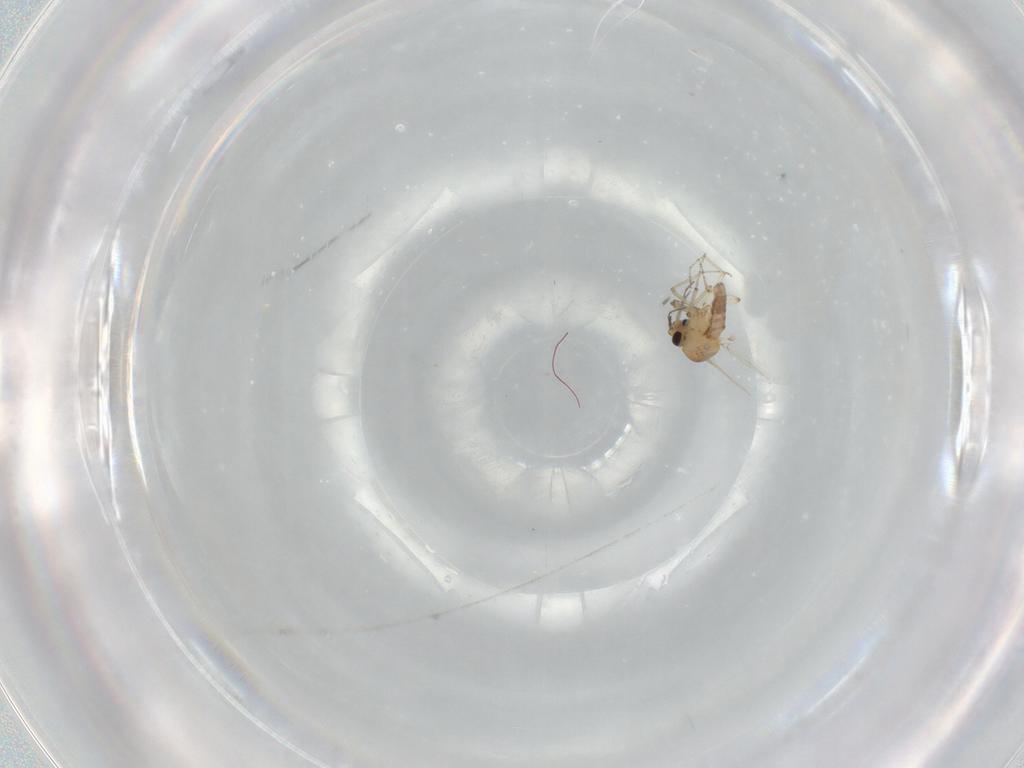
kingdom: Animalia
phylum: Arthropoda
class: Insecta
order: Diptera
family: Ceratopogonidae
